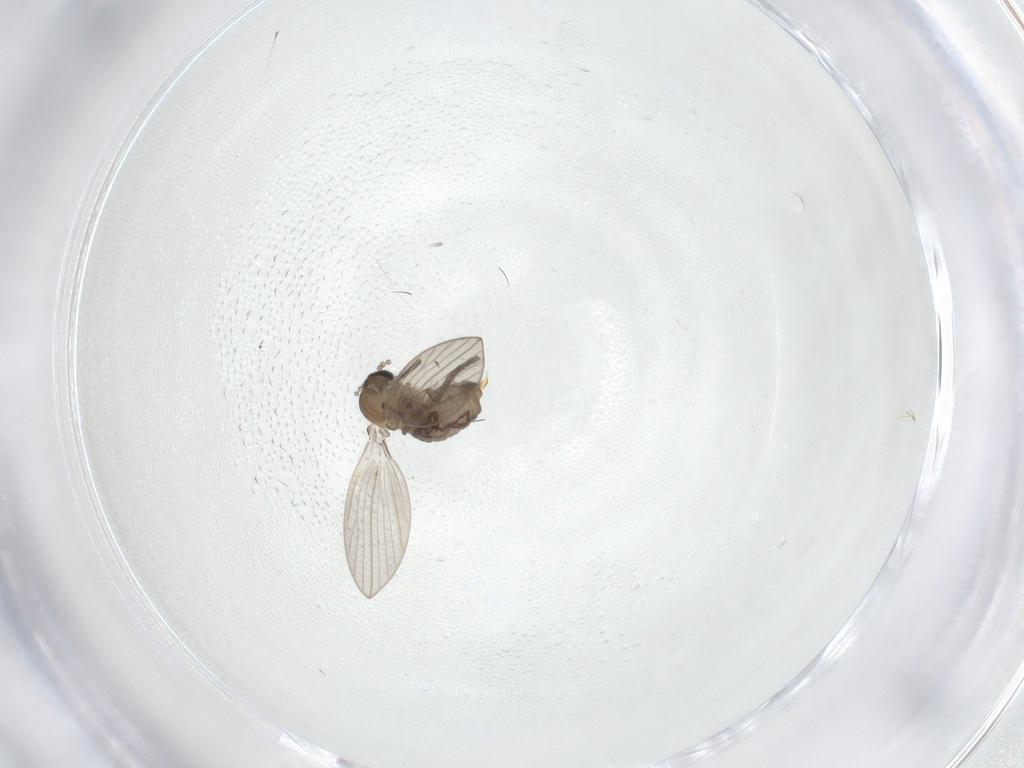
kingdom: Animalia
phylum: Arthropoda
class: Insecta
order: Diptera
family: Psychodidae
